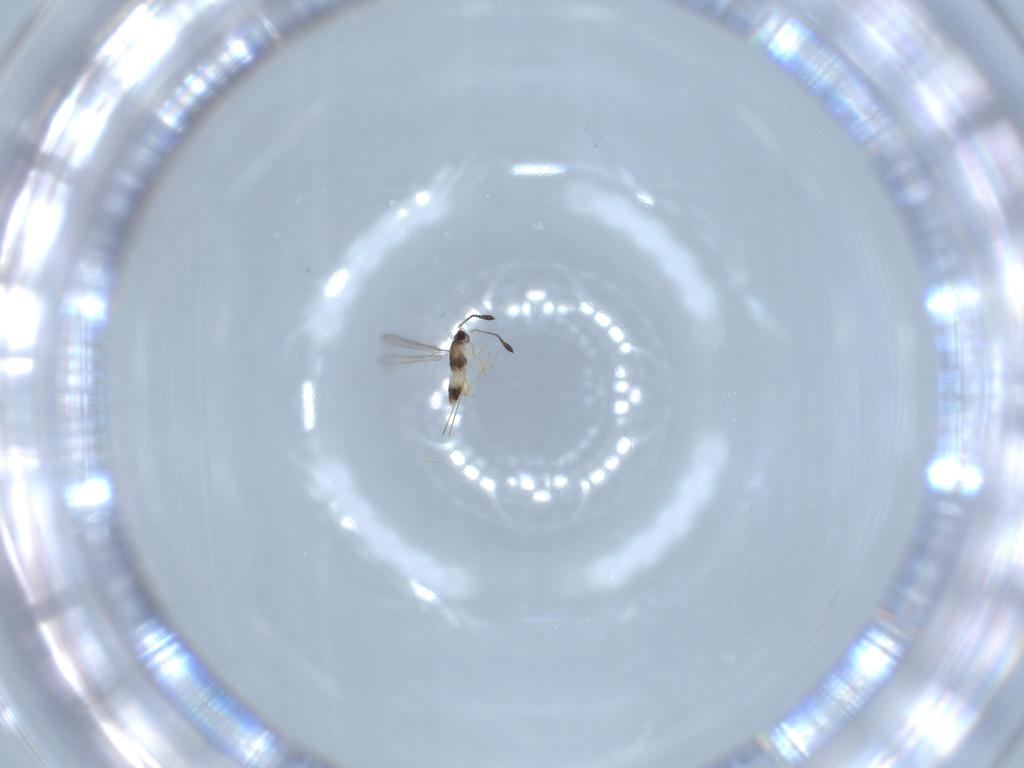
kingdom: Animalia
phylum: Arthropoda
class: Insecta
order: Hymenoptera
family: Mymaridae
